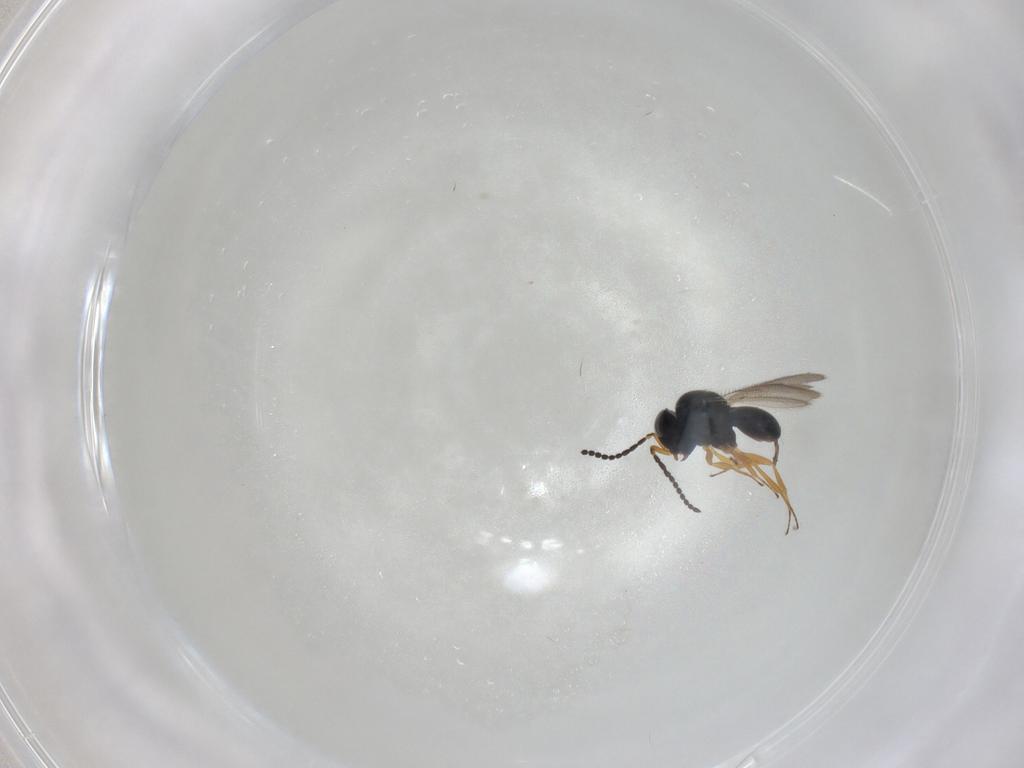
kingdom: Animalia
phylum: Arthropoda
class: Insecta
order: Hymenoptera
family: Scelionidae
